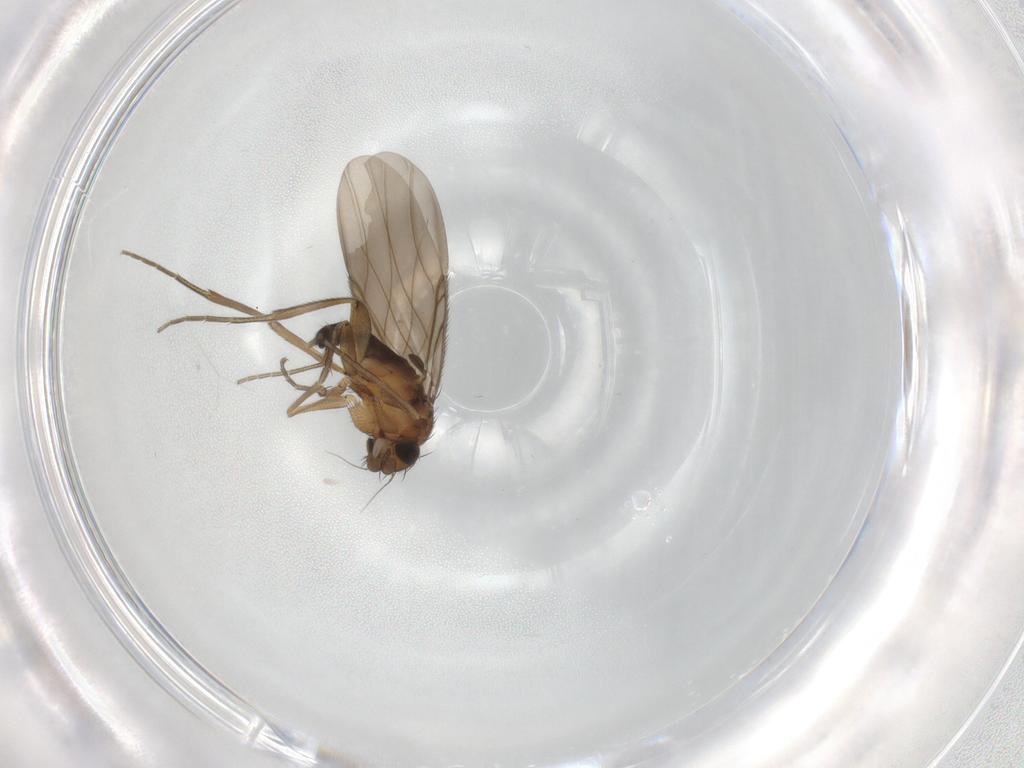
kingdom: Animalia
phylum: Arthropoda
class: Insecta
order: Diptera
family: Phoridae
